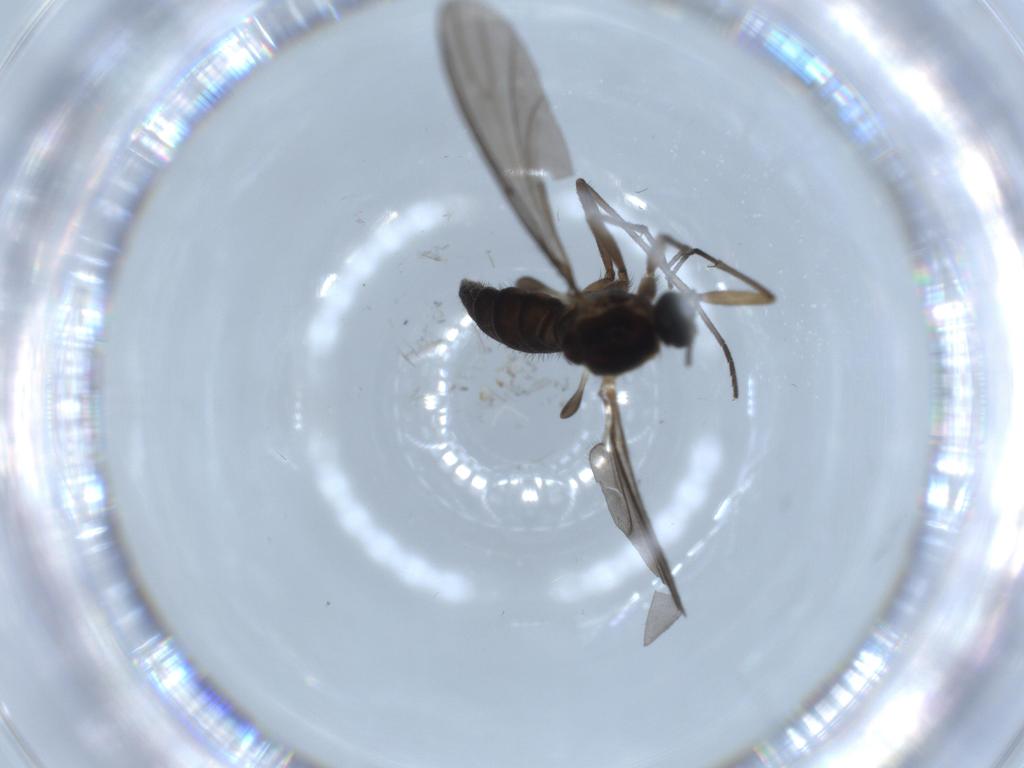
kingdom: Animalia
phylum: Arthropoda
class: Insecta
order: Diptera
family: Sciaridae
